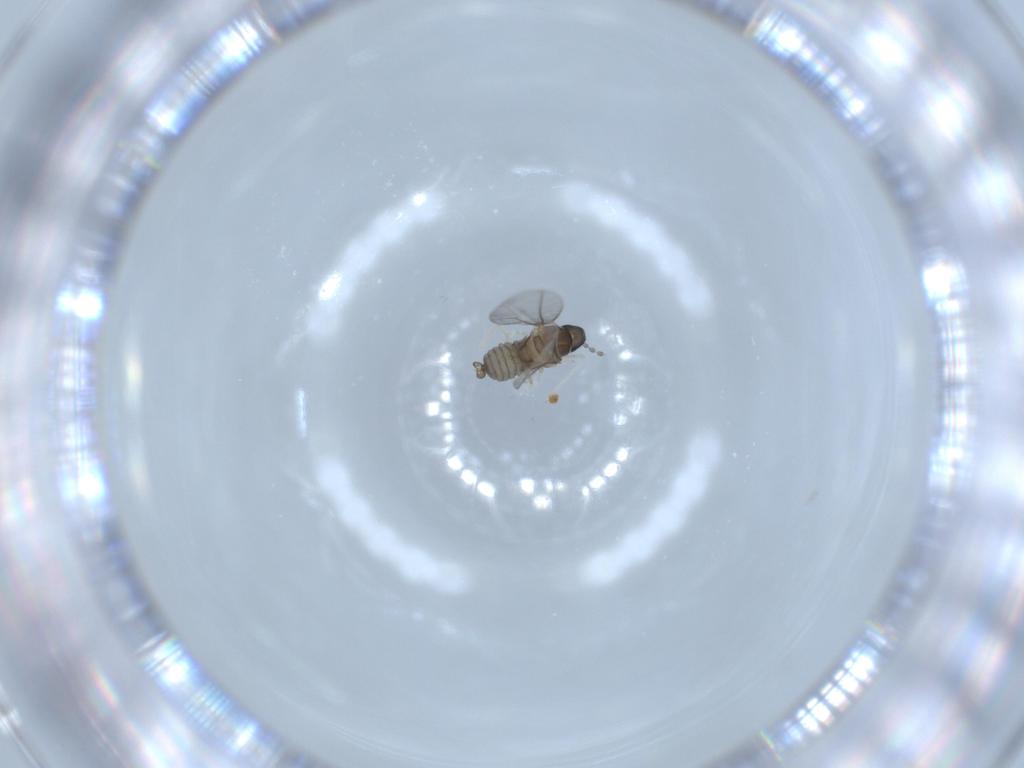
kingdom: Animalia
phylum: Arthropoda
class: Insecta
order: Diptera
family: Cecidomyiidae
